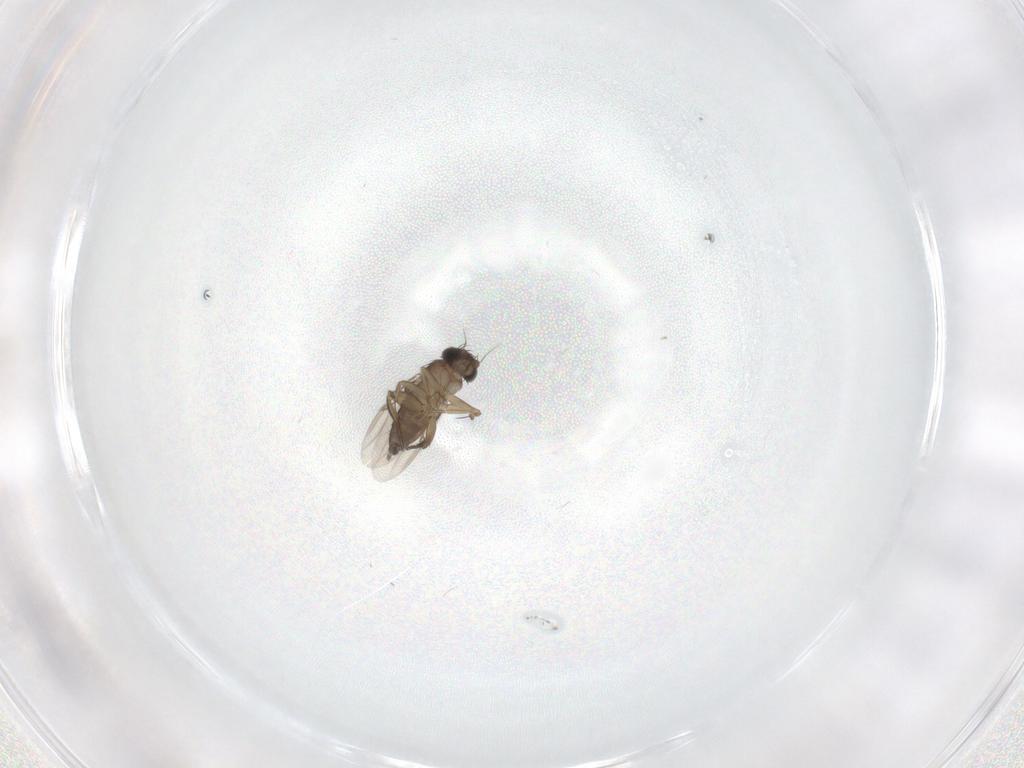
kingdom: Animalia
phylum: Arthropoda
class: Insecta
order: Diptera
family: Phoridae
